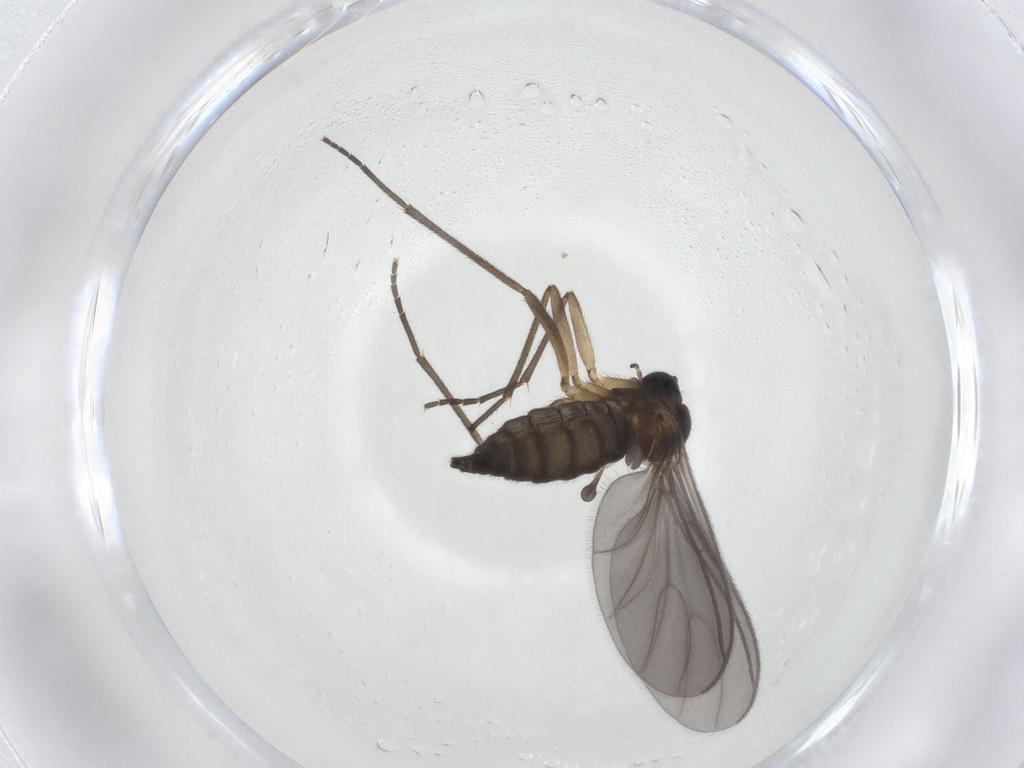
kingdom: Animalia
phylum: Arthropoda
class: Insecta
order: Diptera
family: Sciaridae
